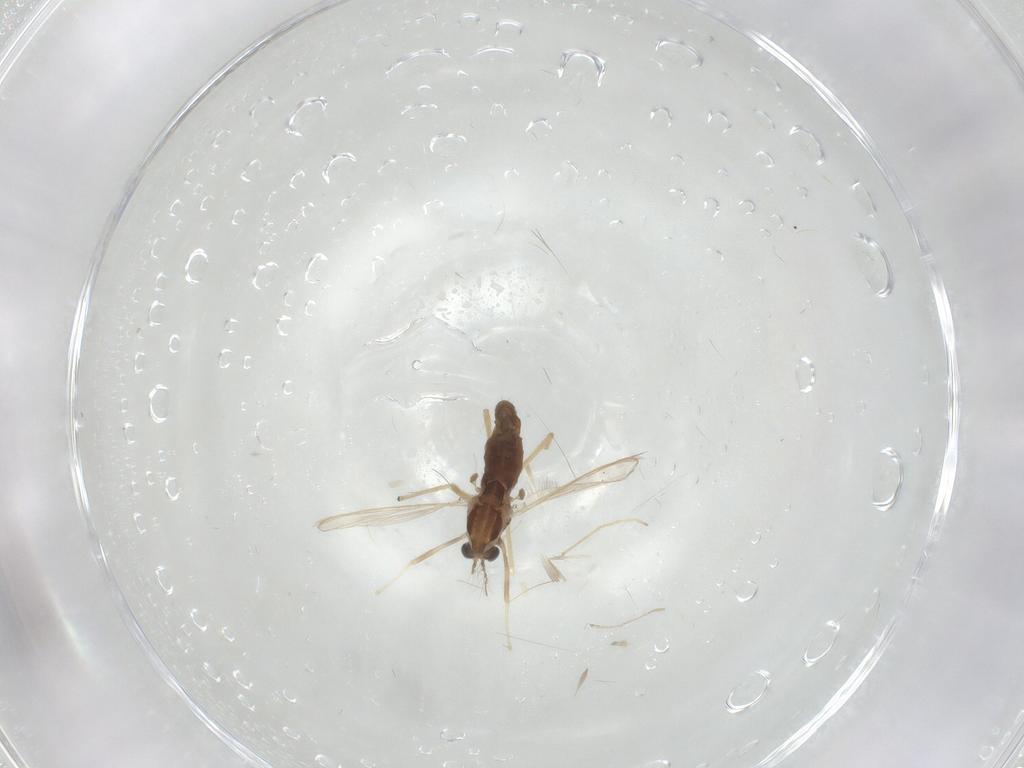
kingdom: Animalia
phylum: Arthropoda
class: Insecta
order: Diptera
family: Chironomidae
